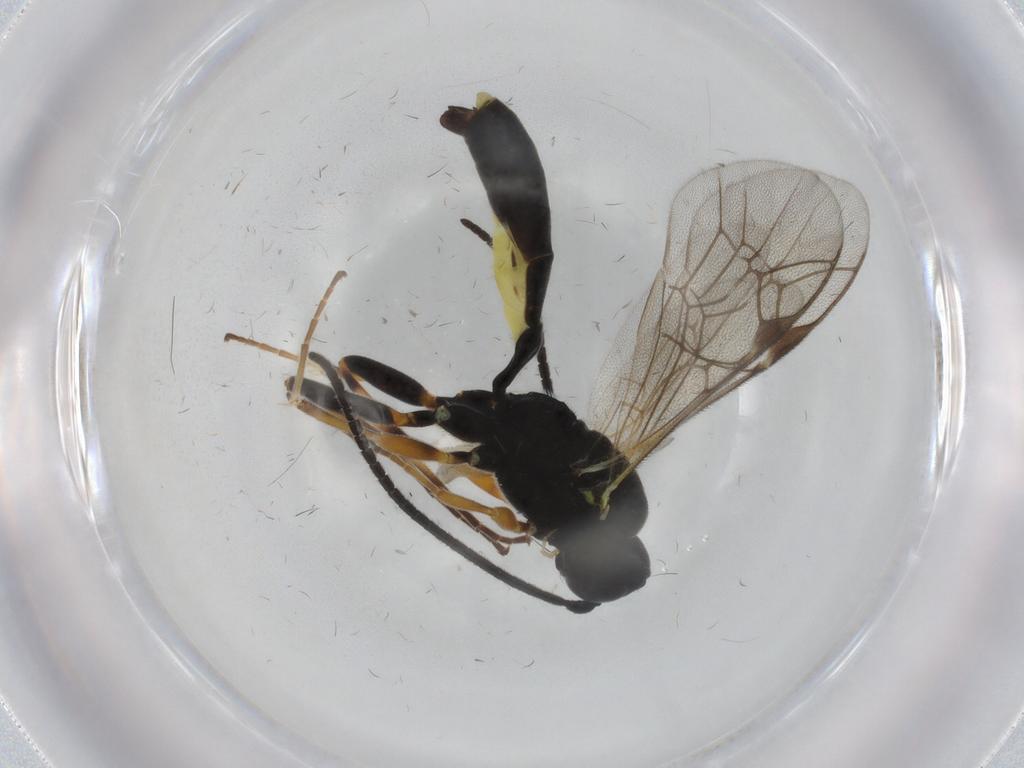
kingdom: Animalia
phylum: Arthropoda
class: Insecta
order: Hymenoptera
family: Ichneumonidae
